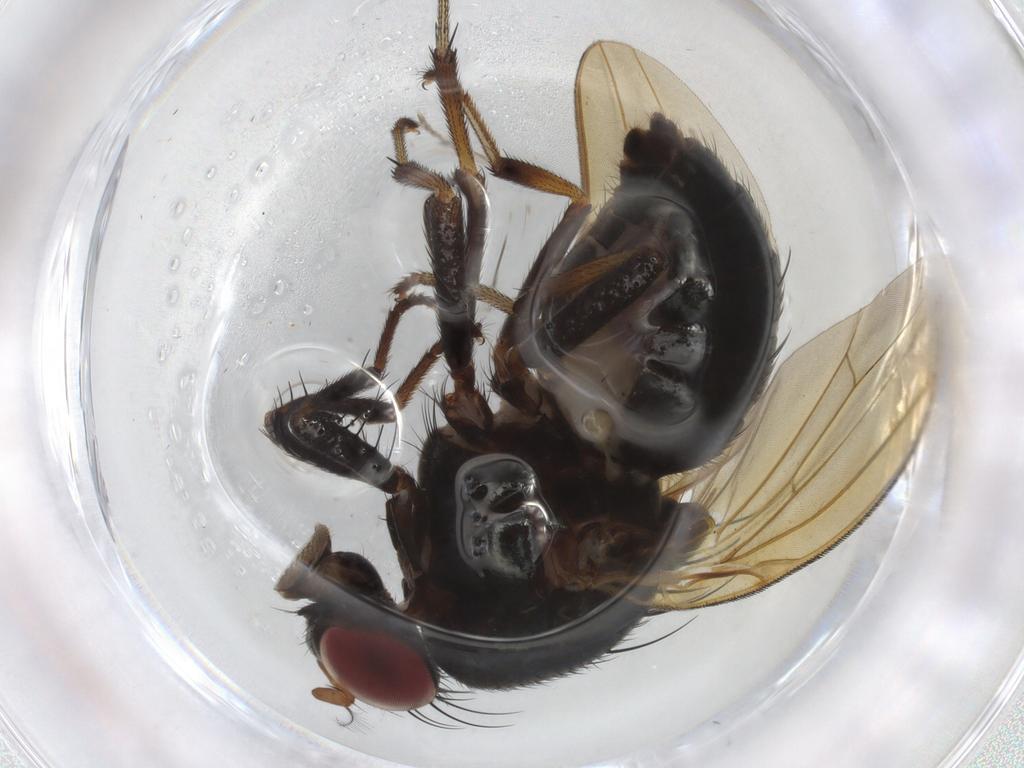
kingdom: Animalia
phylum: Arthropoda
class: Insecta
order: Diptera
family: Lauxaniidae
